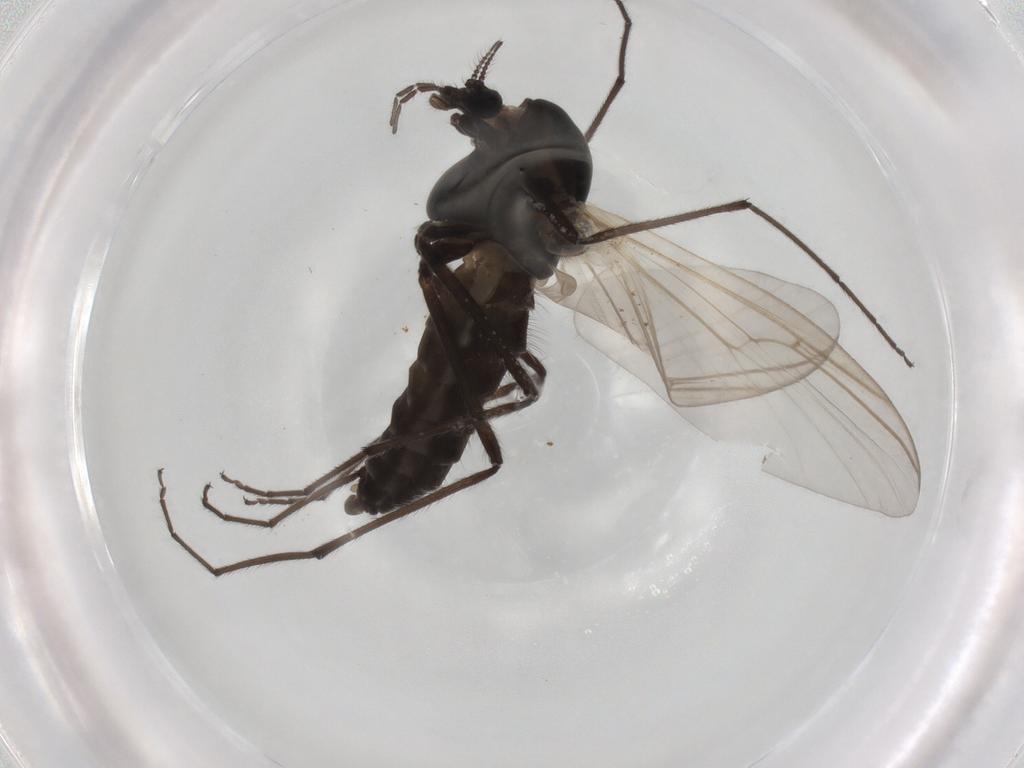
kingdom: Animalia
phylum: Arthropoda
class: Insecta
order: Diptera
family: Chironomidae
